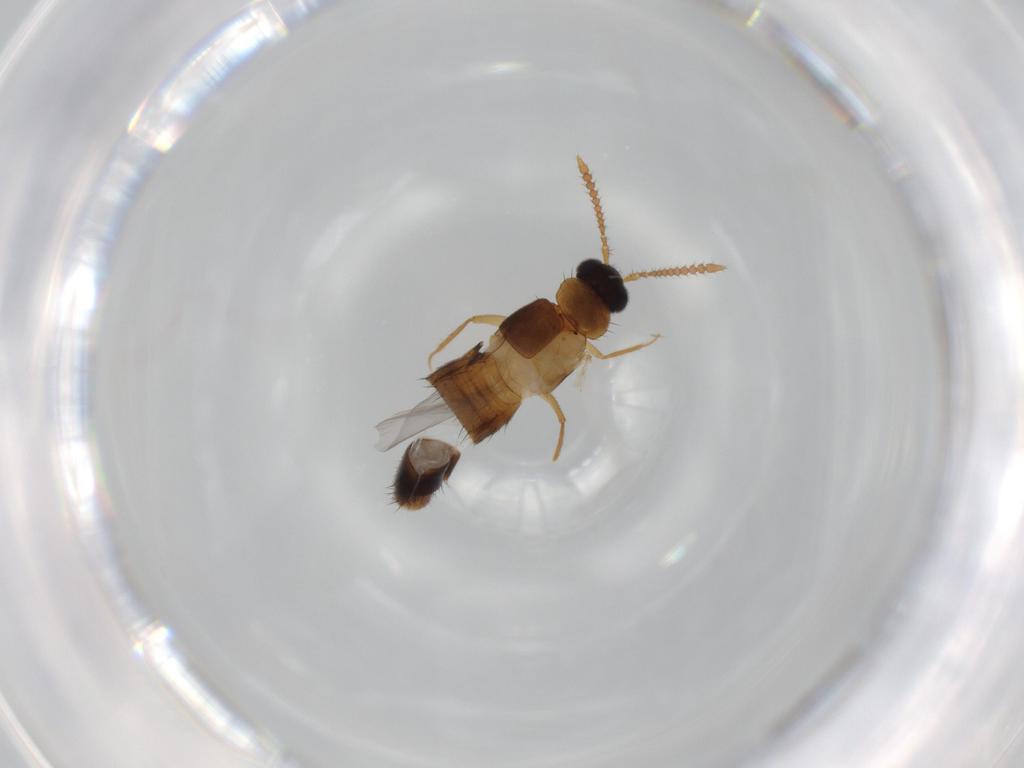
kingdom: Animalia
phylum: Arthropoda
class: Insecta
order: Coleoptera
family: Staphylinidae
